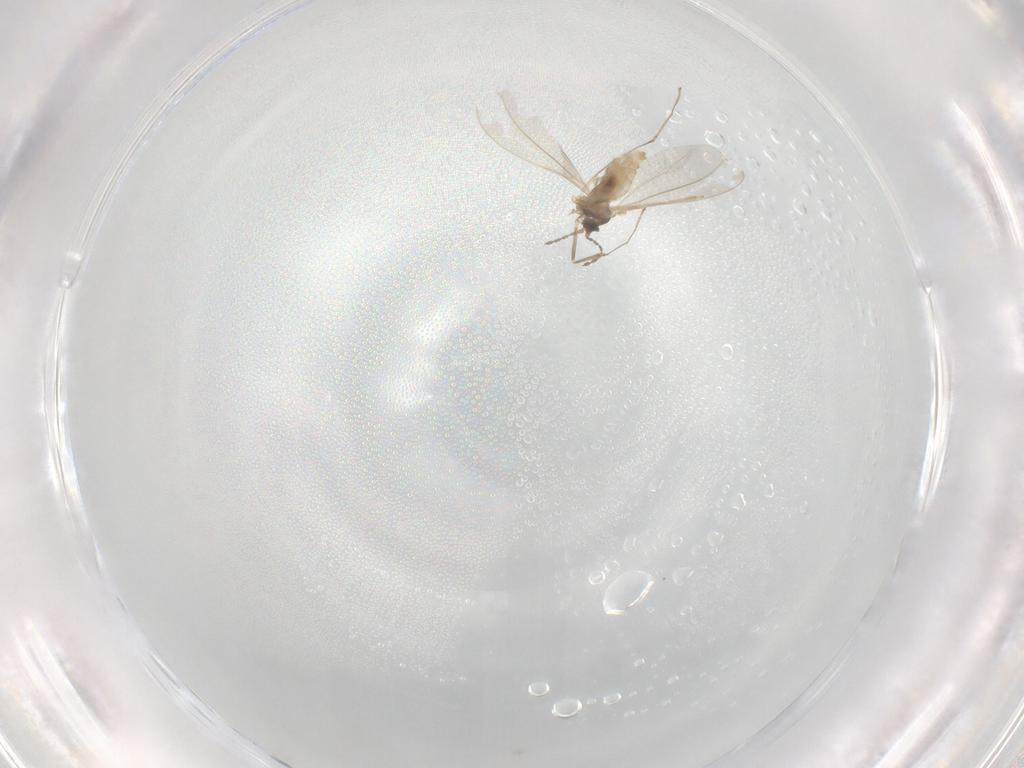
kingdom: Animalia
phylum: Arthropoda
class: Insecta
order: Diptera
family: Cecidomyiidae
